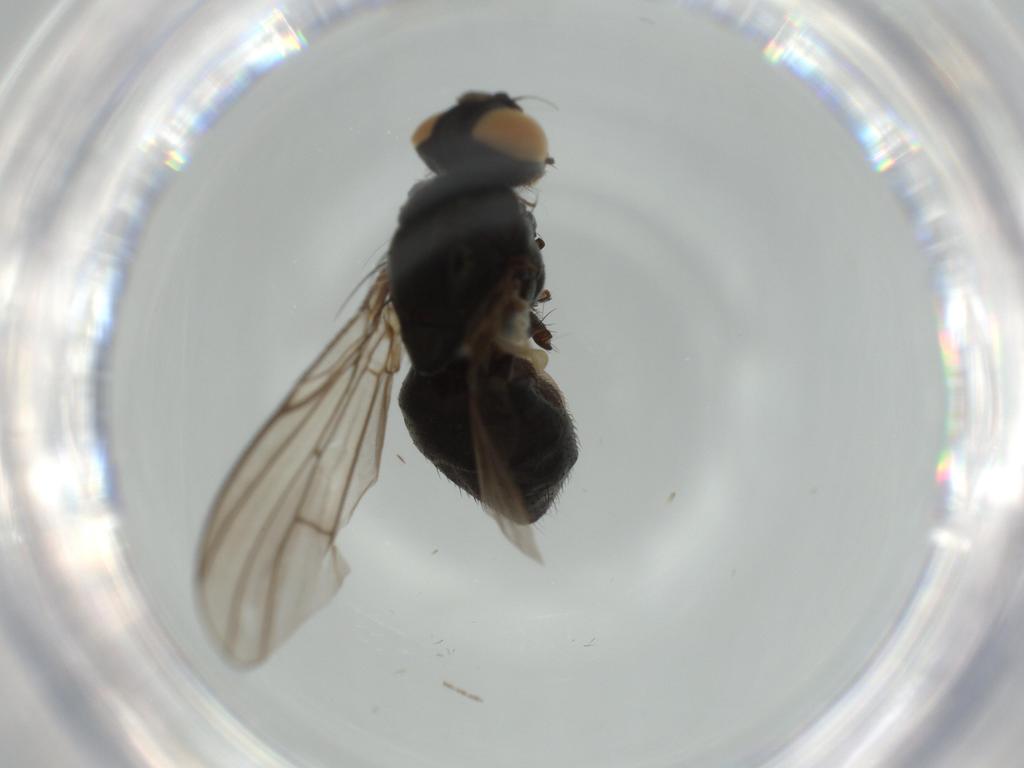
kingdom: Animalia
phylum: Arthropoda
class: Insecta
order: Diptera
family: Muscidae
